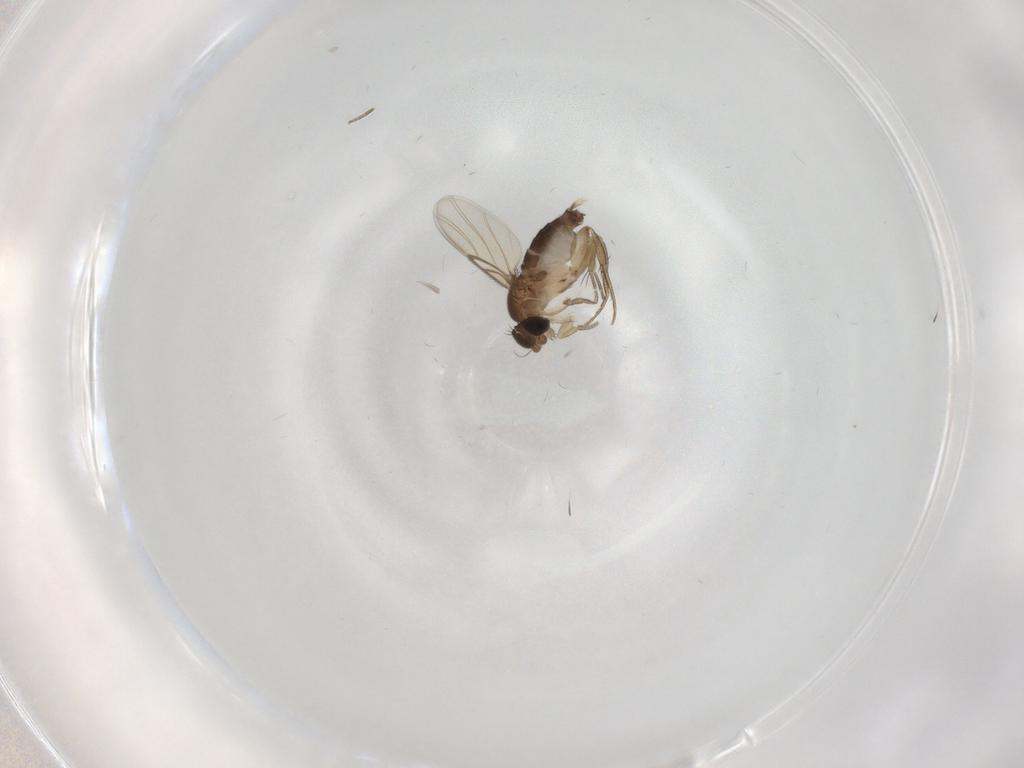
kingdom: Animalia
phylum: Arthropoda
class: Insecta
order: Diptera
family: Phoridae
